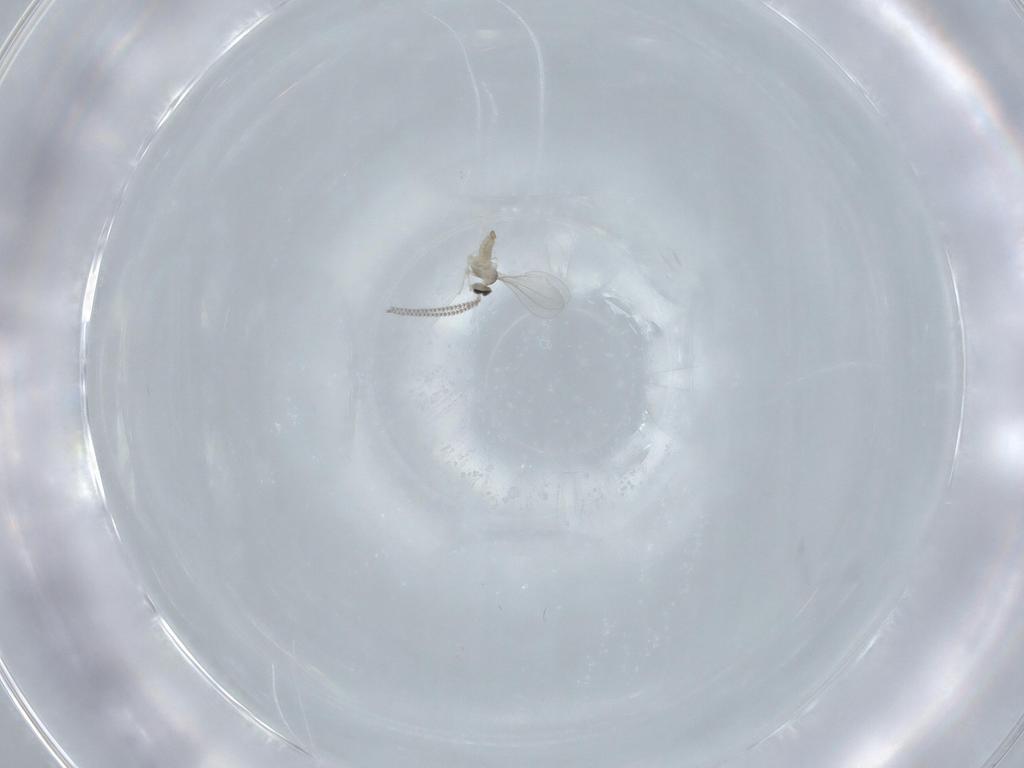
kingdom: Animalia
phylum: Arthropoda
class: Insecta
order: Diptera
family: Cecidomyiidae
